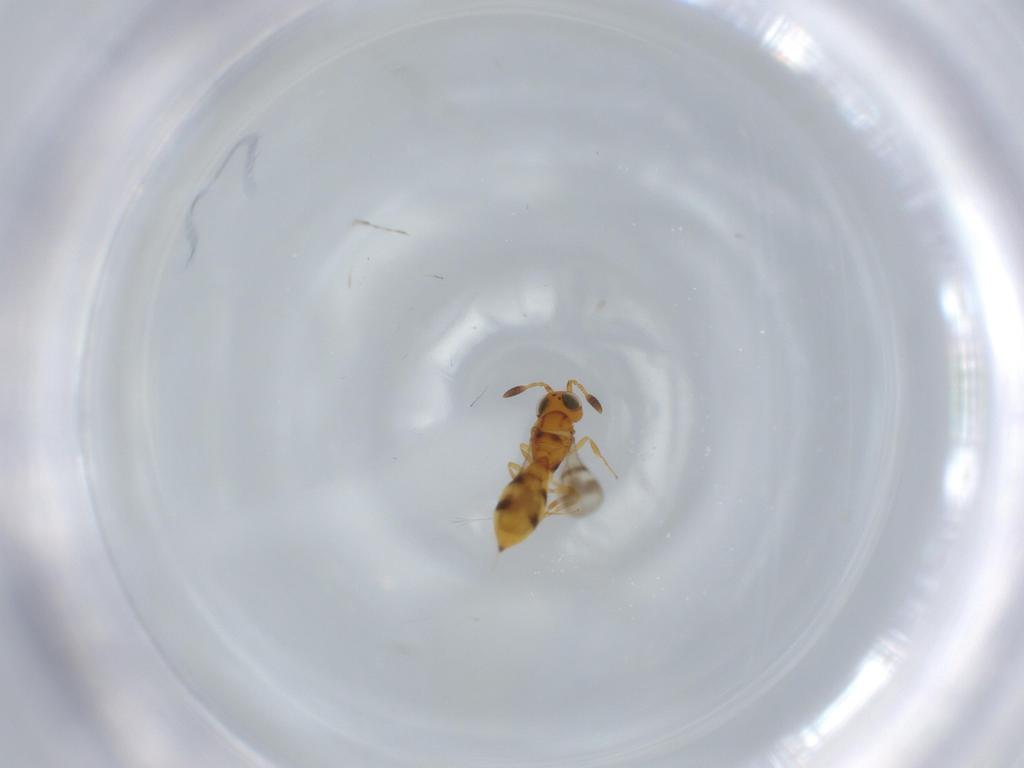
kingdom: Animalia
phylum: Arthropoda
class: Insecta
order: Hymenoptera
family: Scelionidae
